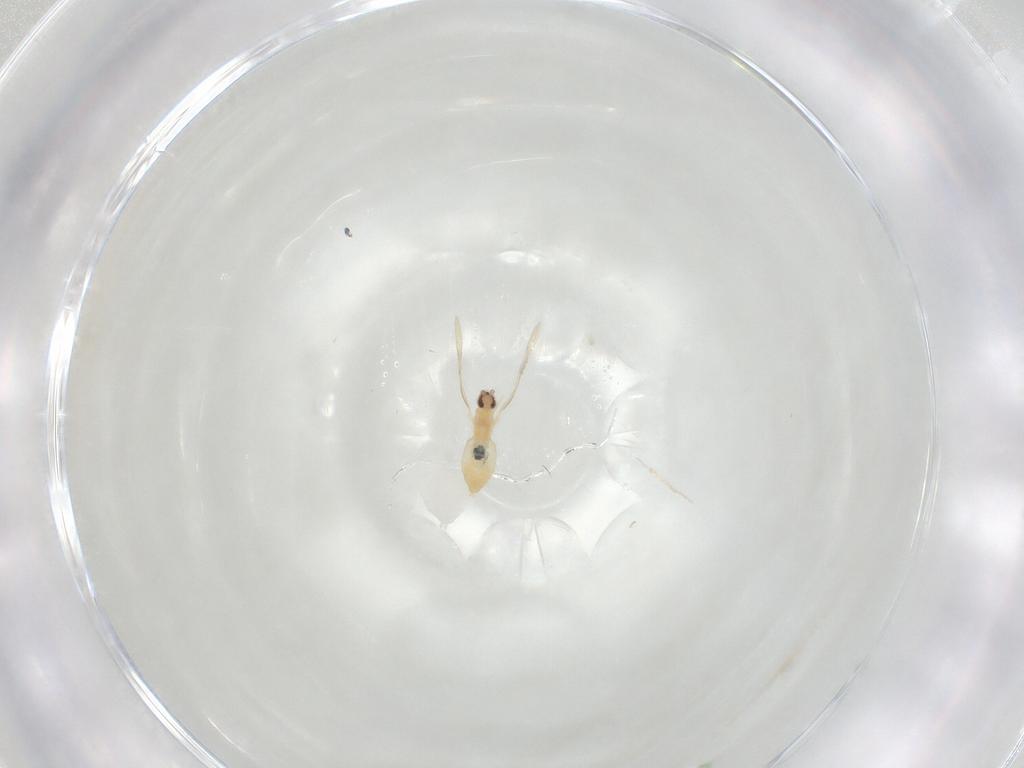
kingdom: Animalia
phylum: Arthropoda
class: Insecta
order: Diptera
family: Cecidomyiidae
